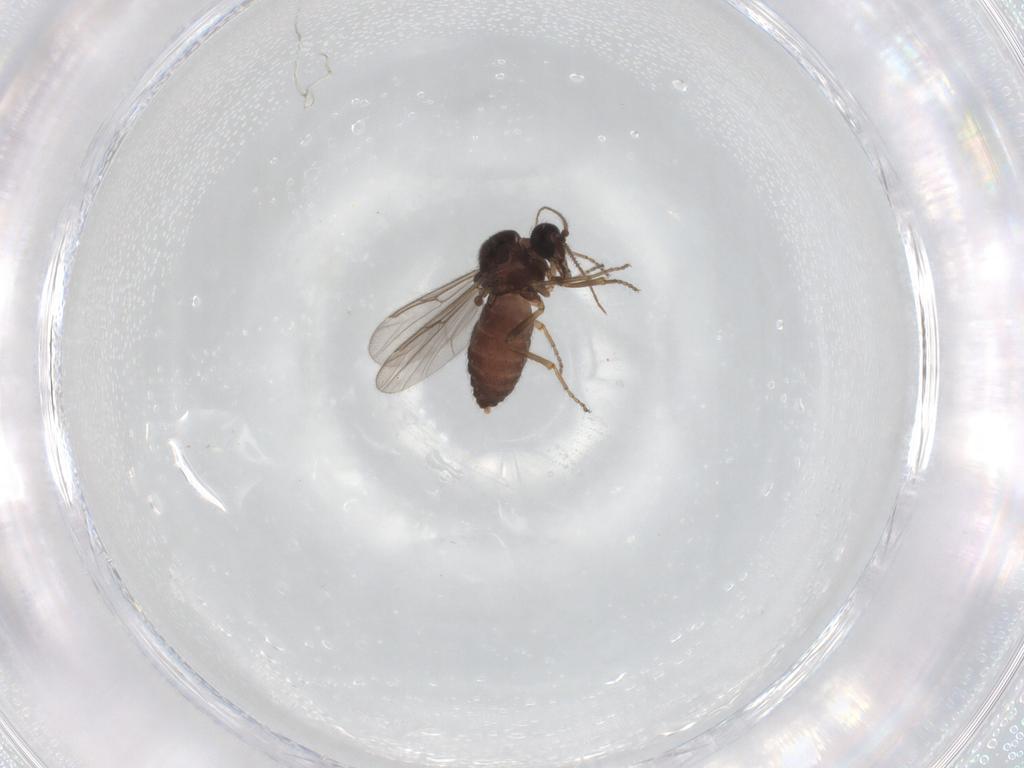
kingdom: Animalia
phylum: Arthropoda
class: Insecta
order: Diptera
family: Ceratopogonidae
